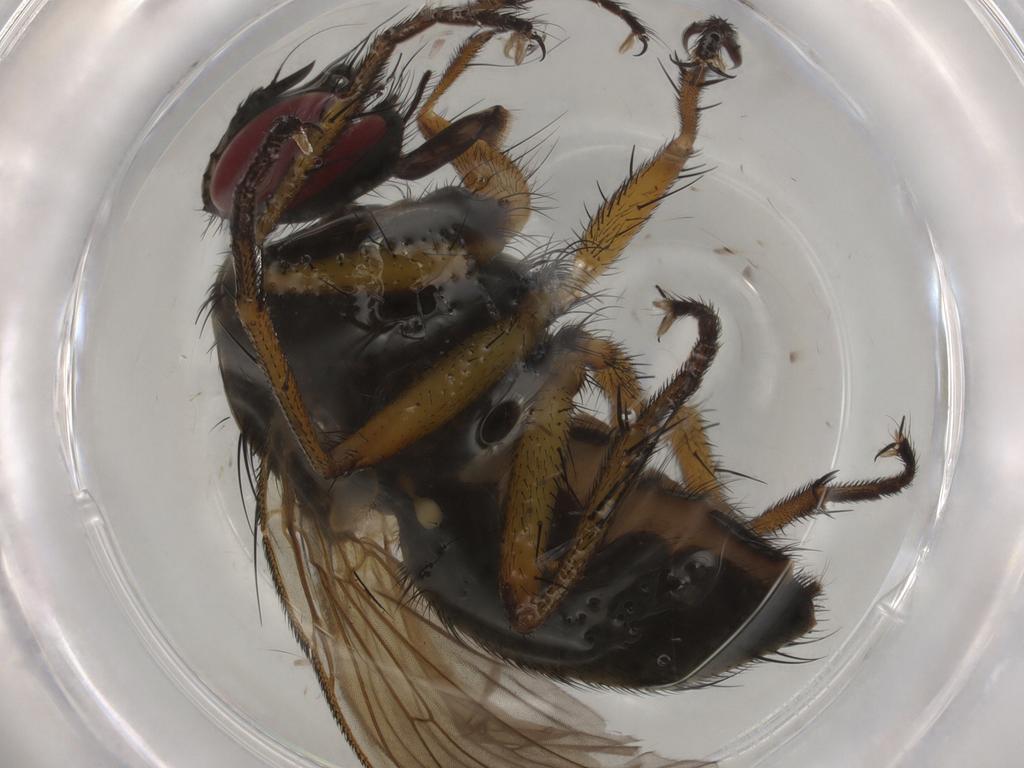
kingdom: Animalia
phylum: Arthropoda
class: Insecta
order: Diptera
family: Muscidae
